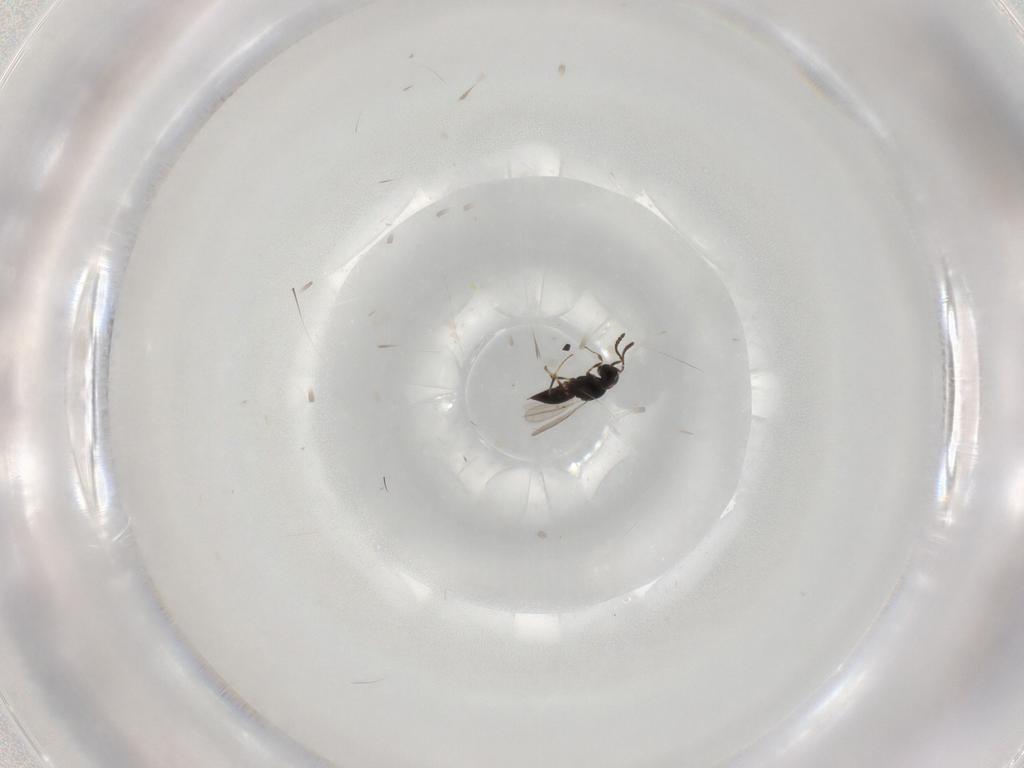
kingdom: Animalia
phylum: Arthropoda
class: Insecta
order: Hymenoptera
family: Scelionidae
